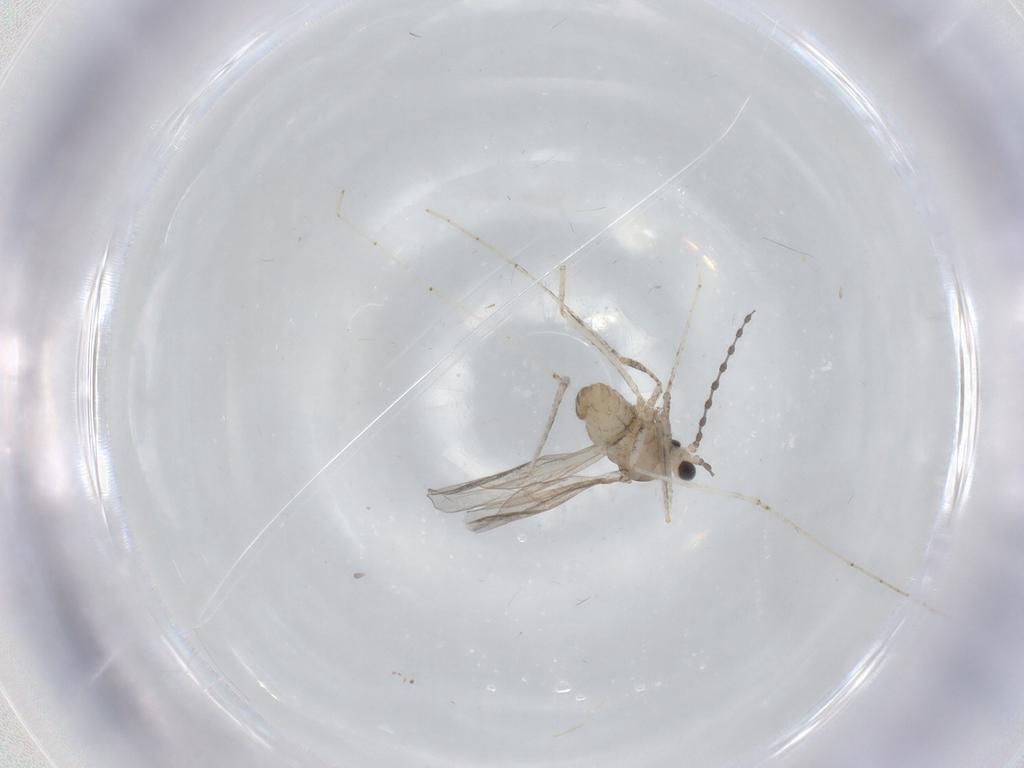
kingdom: Animalia
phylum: Arthropoda
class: Insecta
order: Diptera
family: Cecidomyiidae
